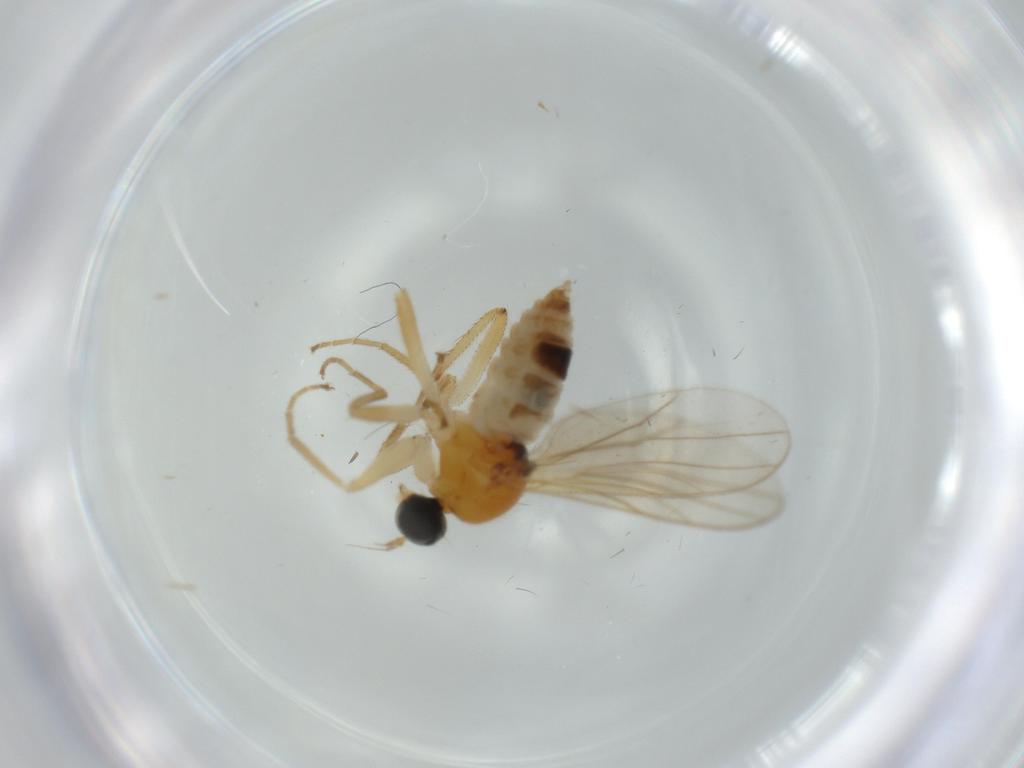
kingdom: Animalia
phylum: Arthropoda
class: Insecta
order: Diptera
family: Hybotidae
